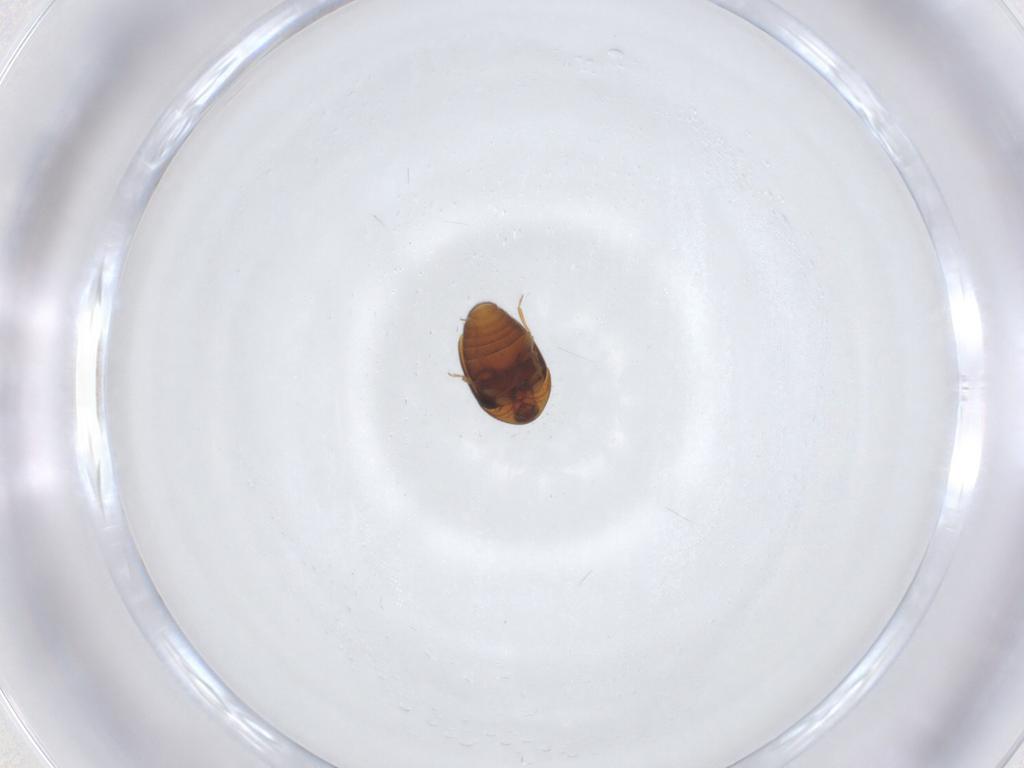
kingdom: Animalia
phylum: Arthropoda
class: Insecta
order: Coleoptera
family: Corylophidae
